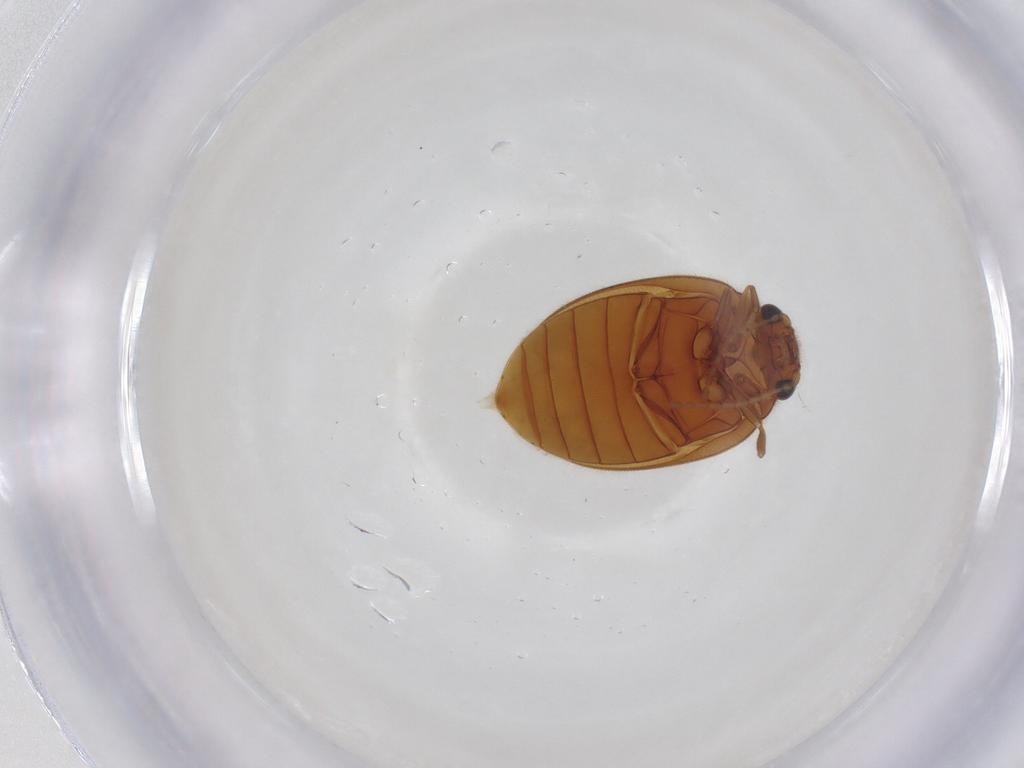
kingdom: Animalia
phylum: Arthropoda
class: Insecta
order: Coleoptera
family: Scirtidae
